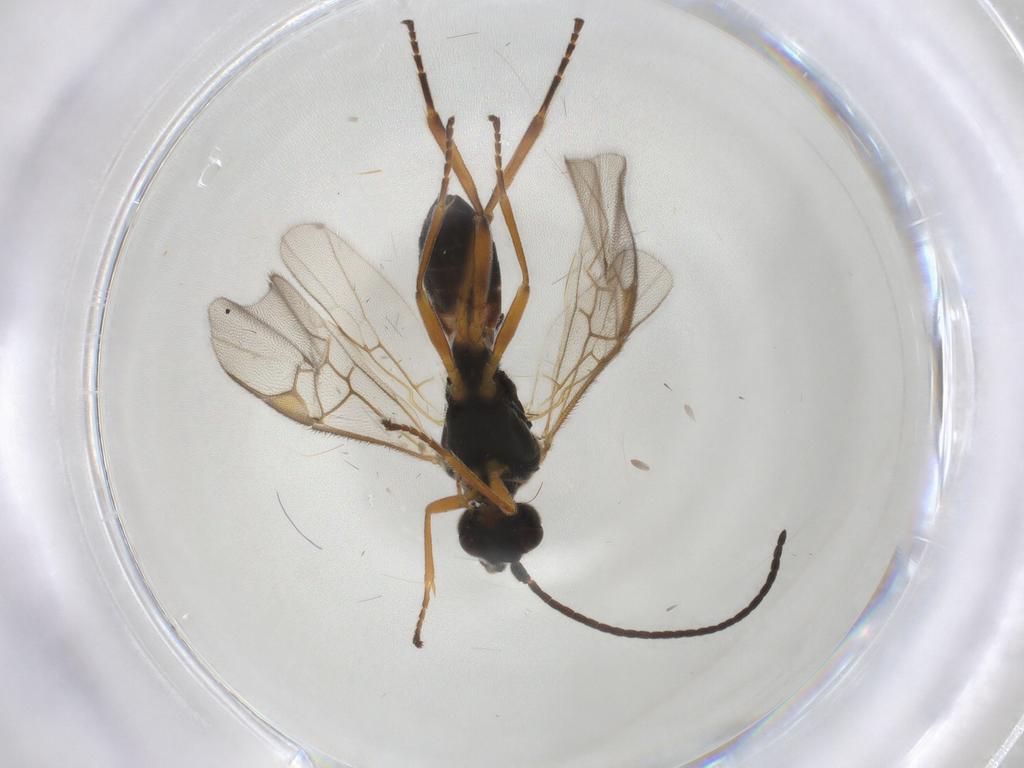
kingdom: Animalia
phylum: Arthropoda
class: Insecta
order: Hymenoptera
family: Braconidae
